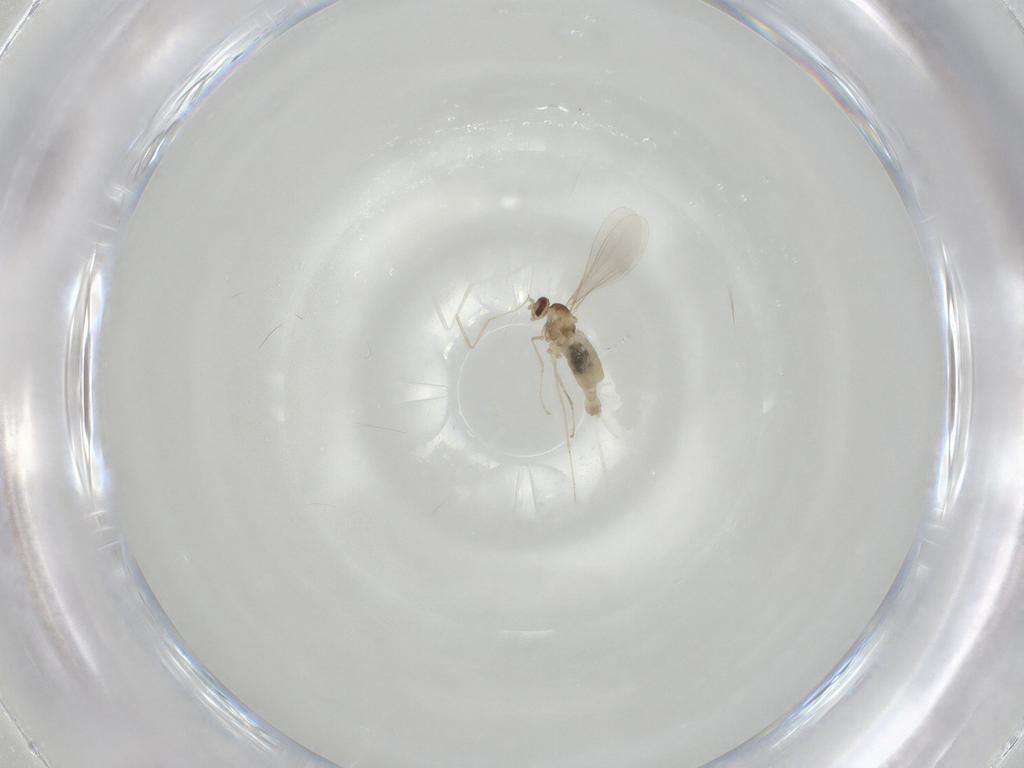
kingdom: Animalia
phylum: Arthropoda
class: Insecta
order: Diptera
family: Cecidomyiidae
